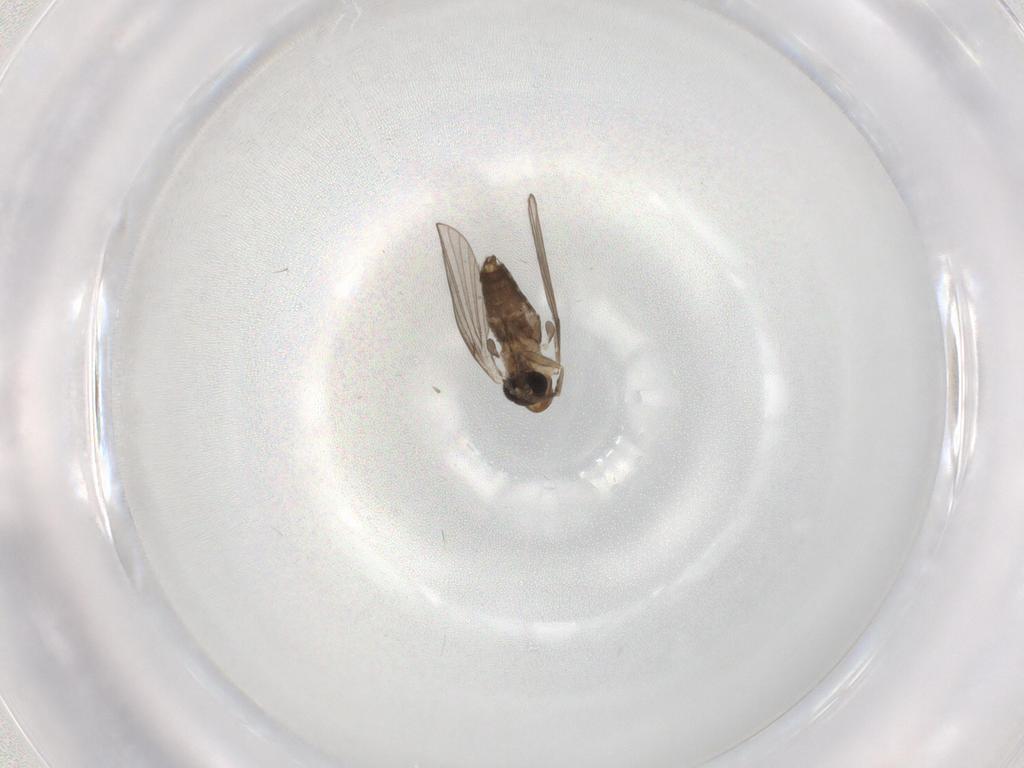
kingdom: Animalia
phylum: Arthropoda
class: Insecta
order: Diptera
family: Psychodidae
